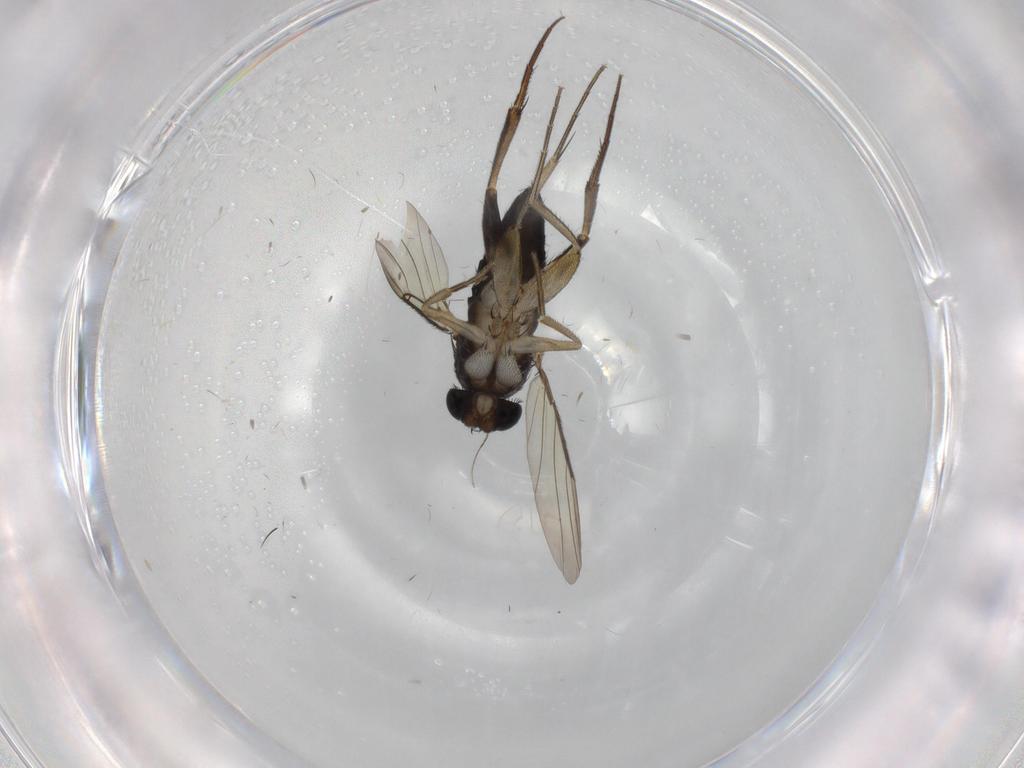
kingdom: Animalia
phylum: Arthropoda
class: Insecta
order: Diptera
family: Phoridae
